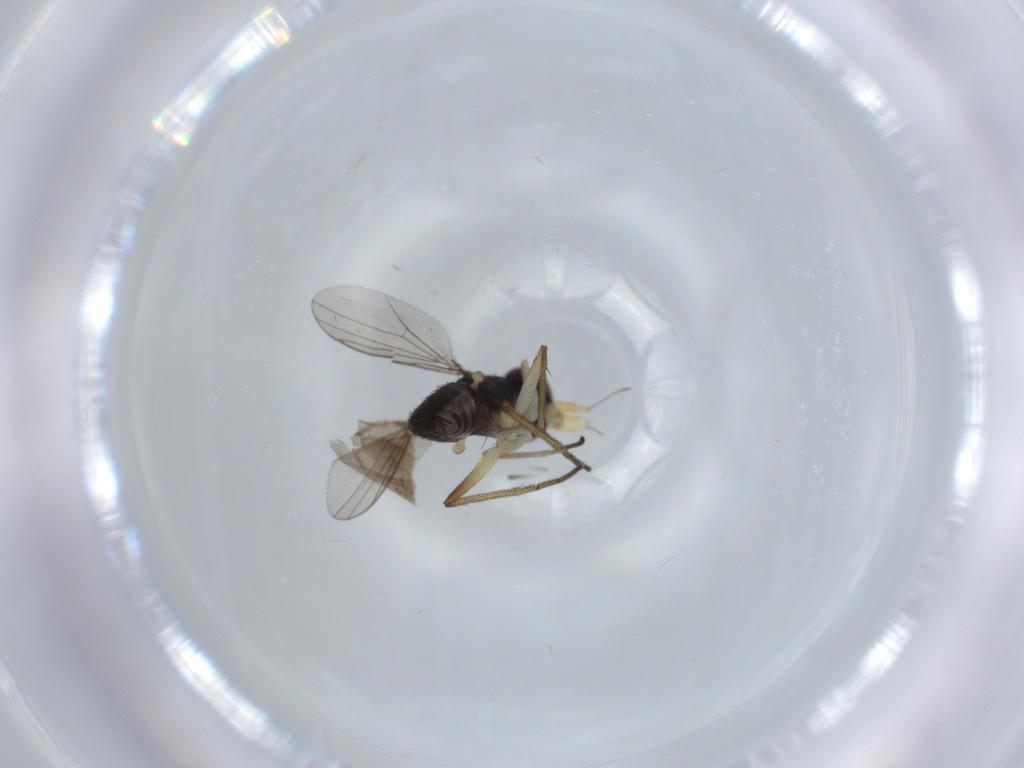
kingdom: Animalia
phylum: Arthropoda
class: Insecta
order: Diptera
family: Dolichopodidae
